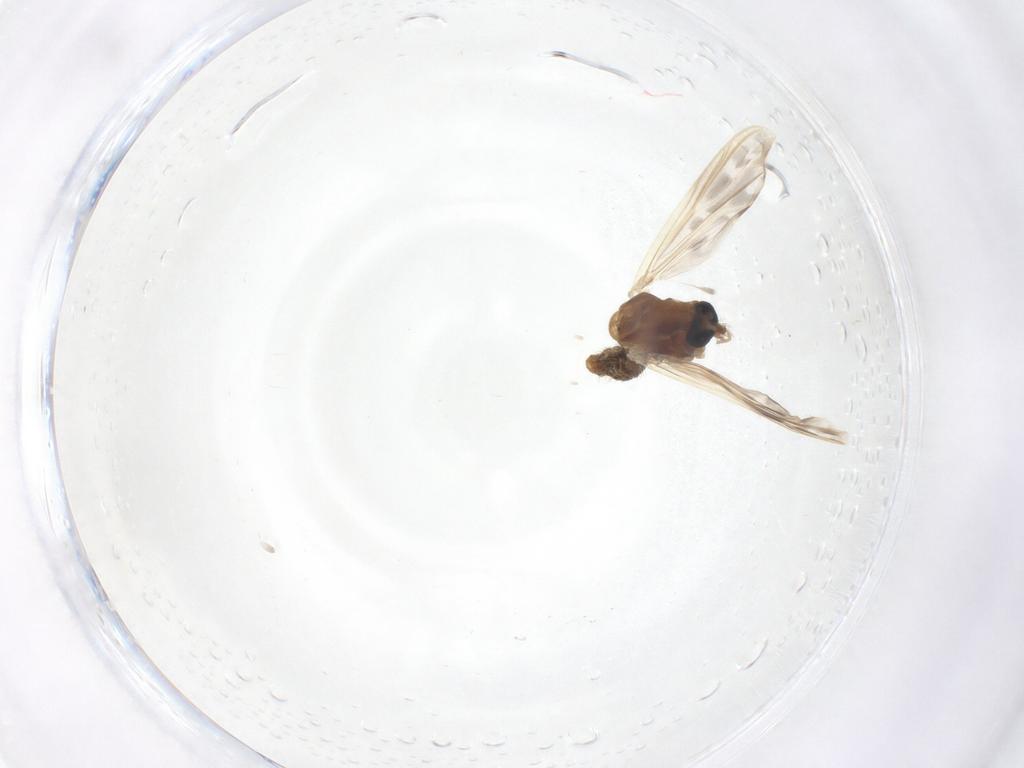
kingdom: Animalia
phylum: Arthropoda
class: Insecta
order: Diptera
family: Chironomidae
